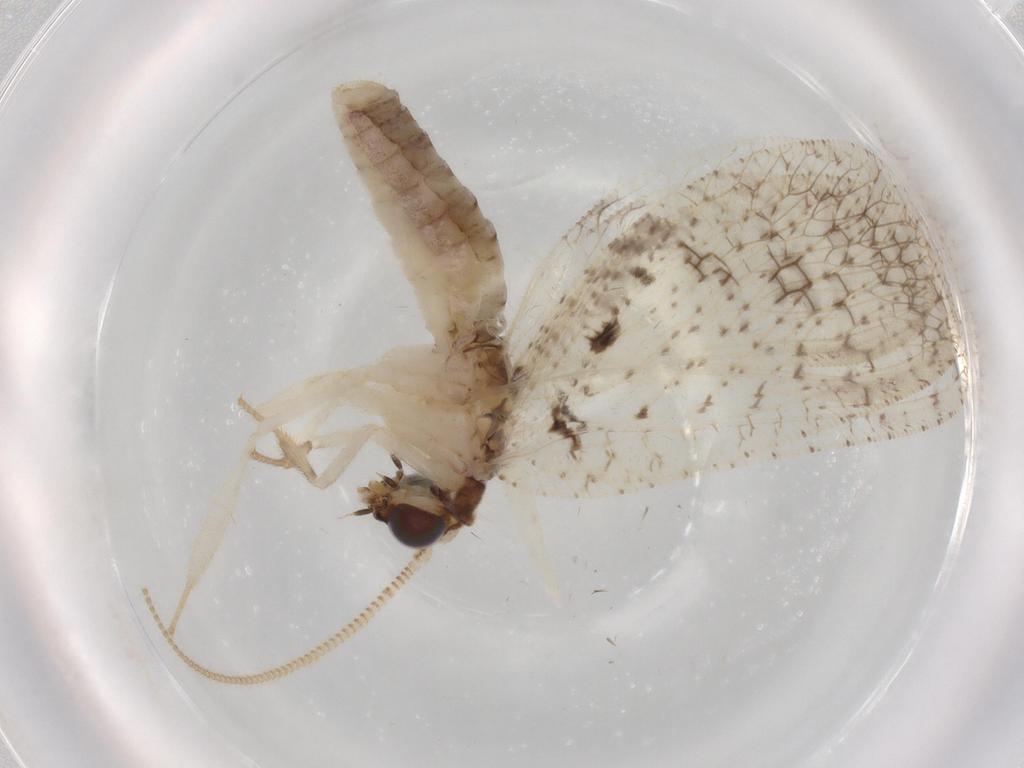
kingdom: Animalia
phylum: Arthropoda
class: Insecta
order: Neuroptera
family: Hemerobiidae
